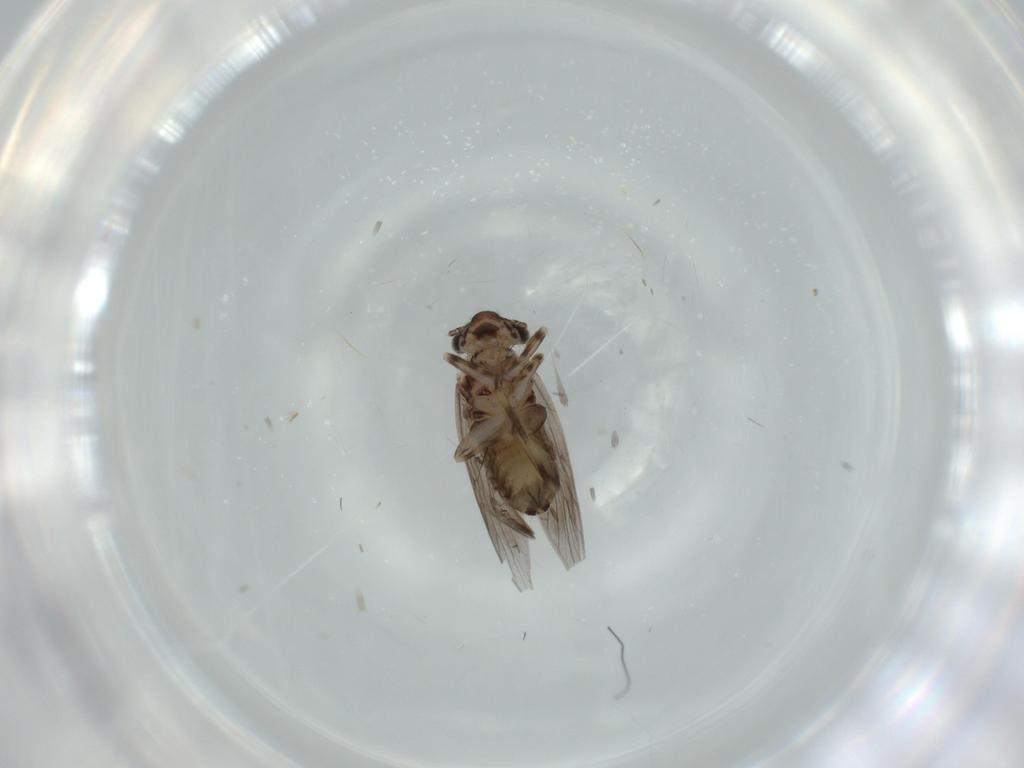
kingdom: Animalia
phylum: Arthropoda
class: Insecta
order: Psocodea
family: Lepidopsocidae
